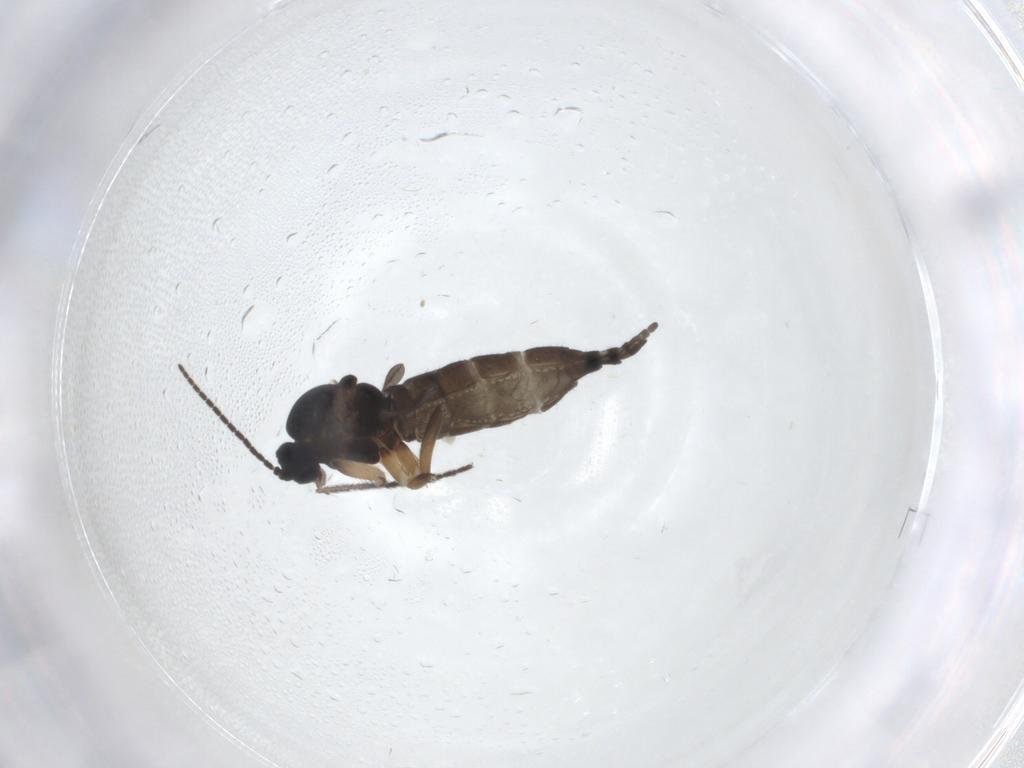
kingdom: Animalia
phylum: Arthropoda
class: Insecta
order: Diptera
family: Sciaridae
